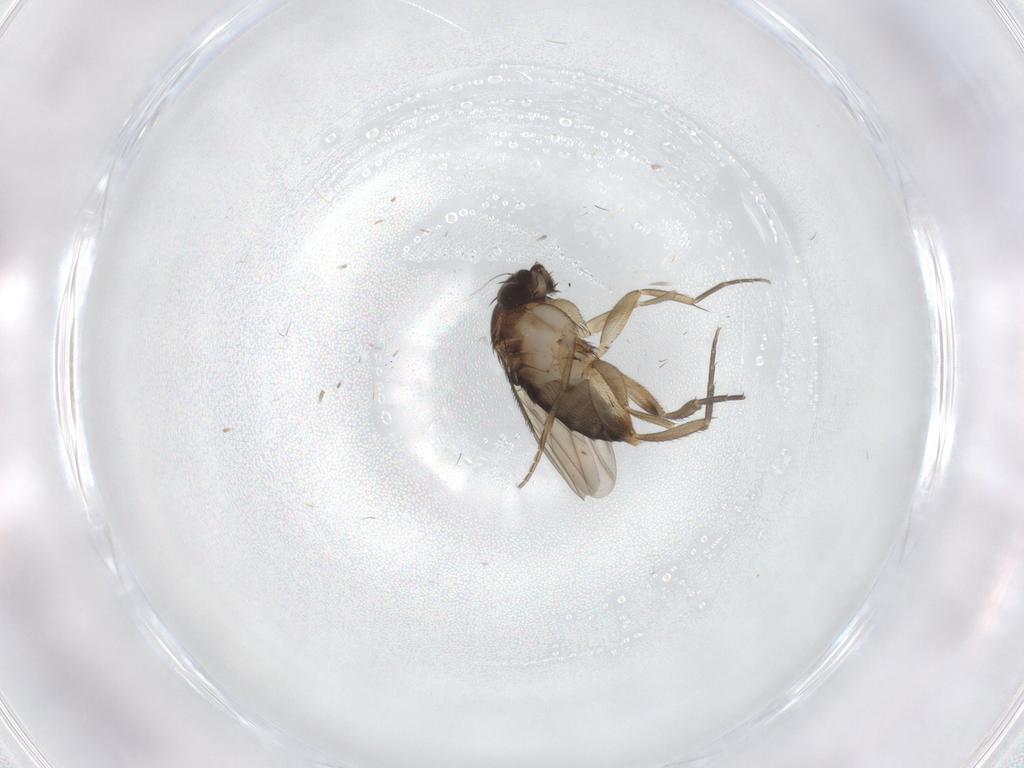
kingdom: Animalia
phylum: Arthropoda
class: Insecta
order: Diptera
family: Phoridae
